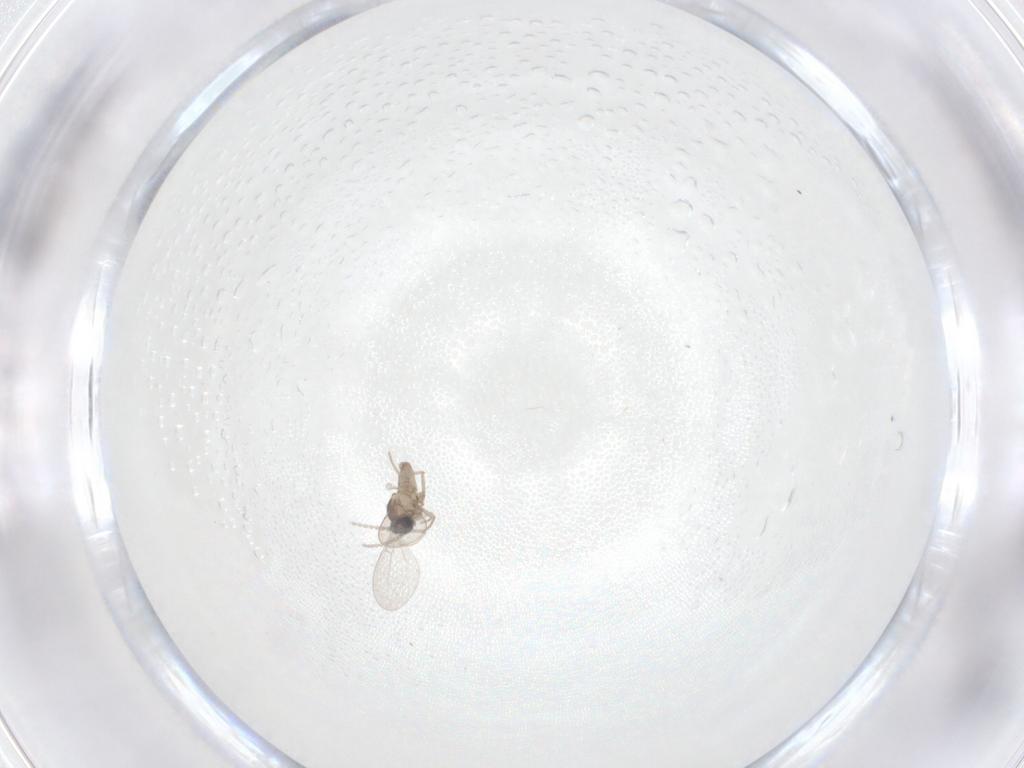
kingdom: Animalia
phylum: Arthropoda
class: Insecta
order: Diptera
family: Cecidomyiidae
